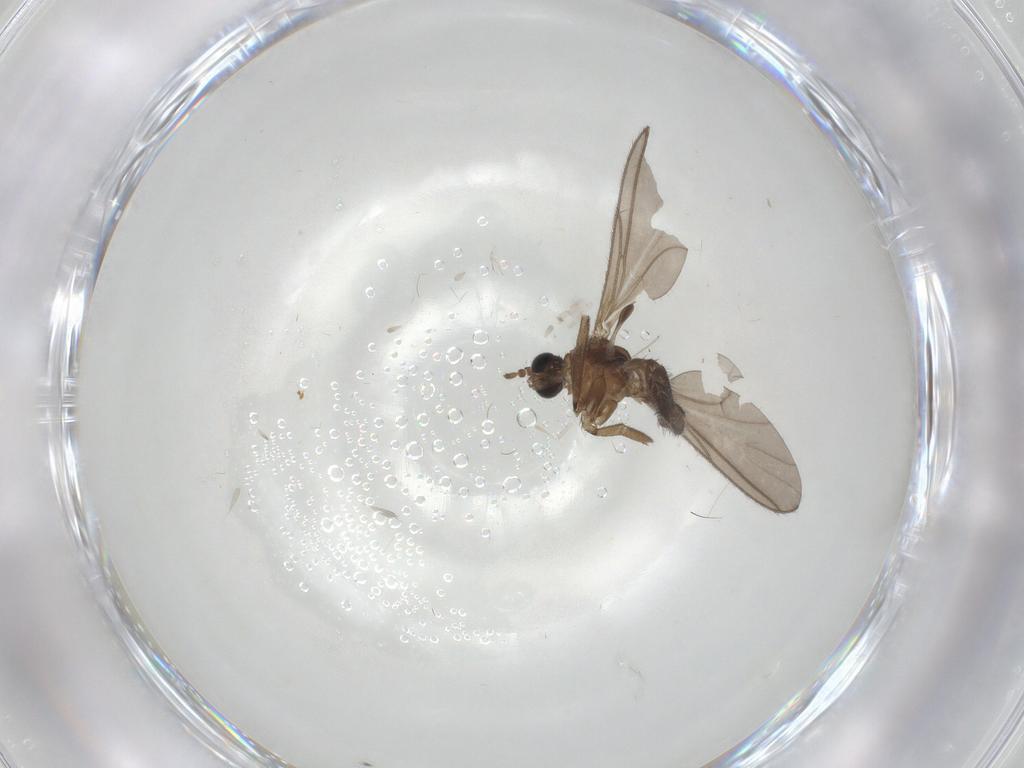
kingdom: Animalia
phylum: Arthropoda
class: Insecta
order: Diptera
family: Limoniidae
